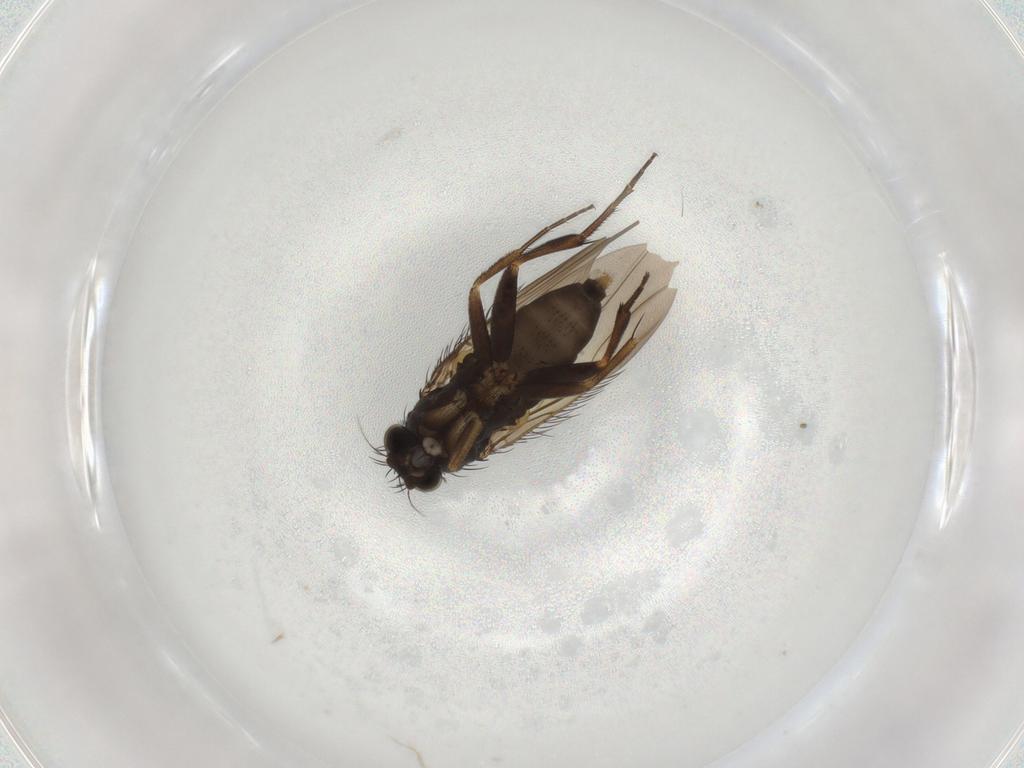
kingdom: Animalia
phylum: Arthropoda
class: Insecta
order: Diptera
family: Phoridae
